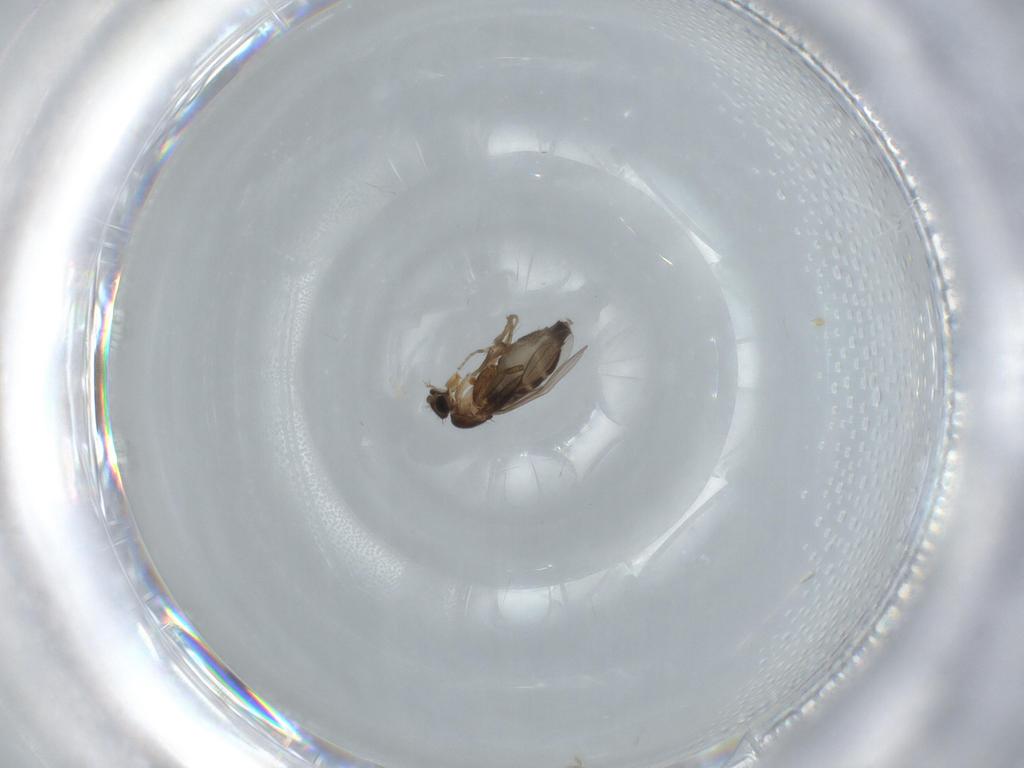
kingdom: Animalia
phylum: Arthropoda
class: Insecta
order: Diptera
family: Phoridae
